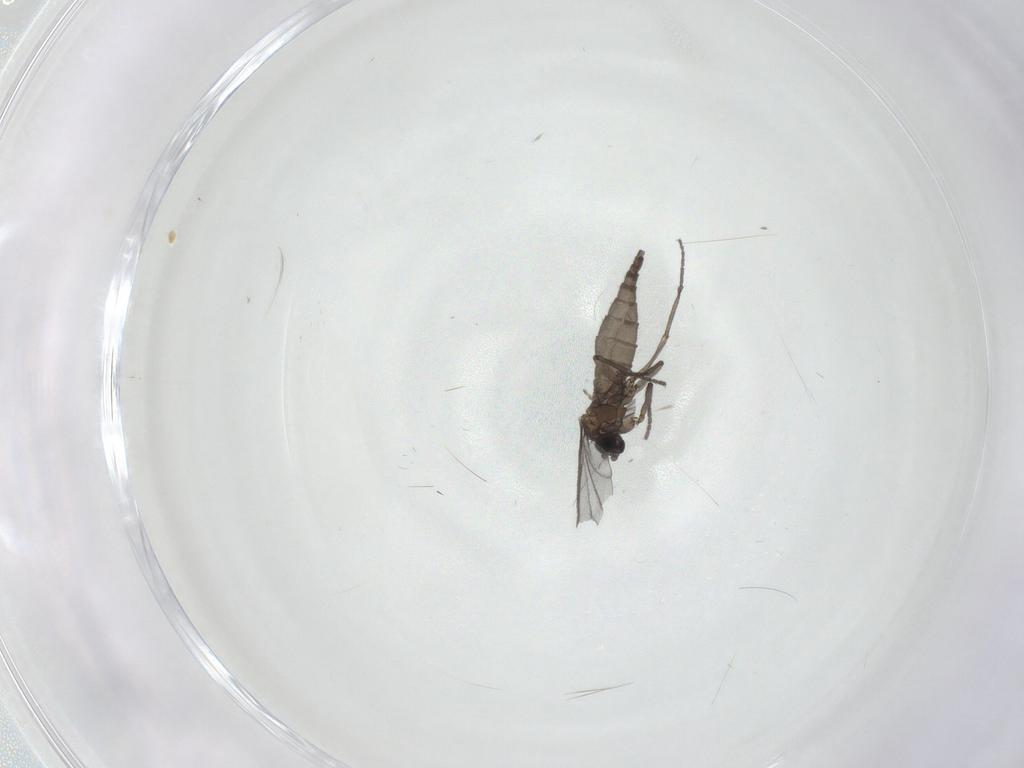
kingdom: Animalia
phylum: Arthropoda
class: Insecta
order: Diptera
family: Sciaridae
